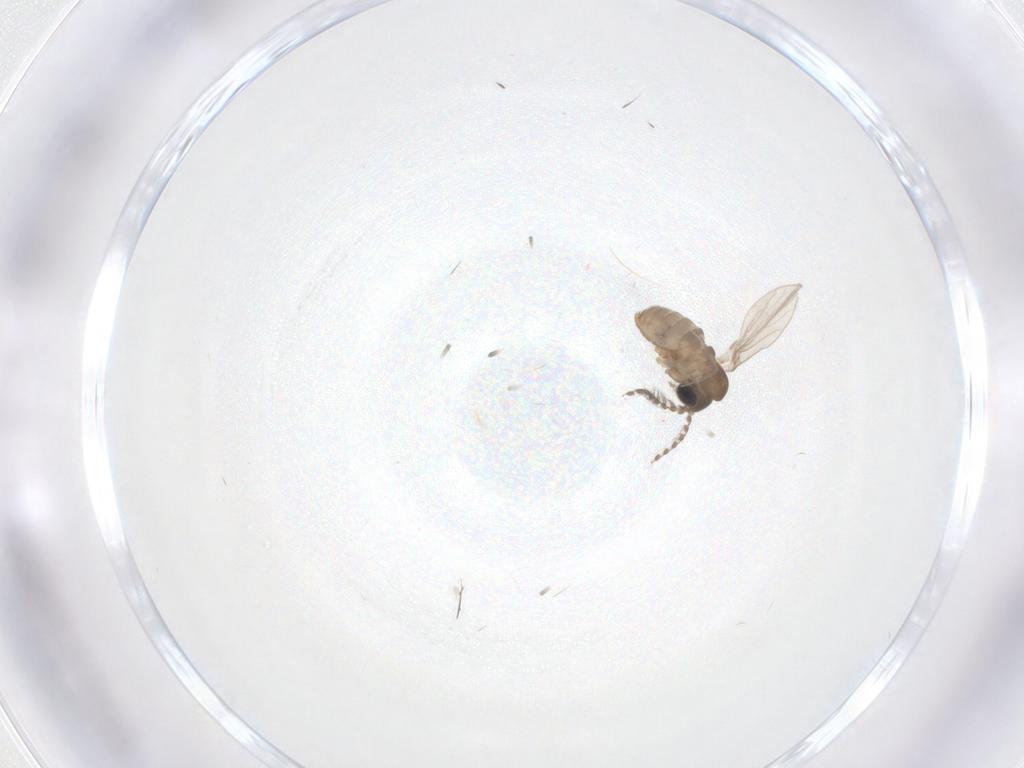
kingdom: Animalia
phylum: Arthropoda
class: Insecta
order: Diptera
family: Psychodidae
